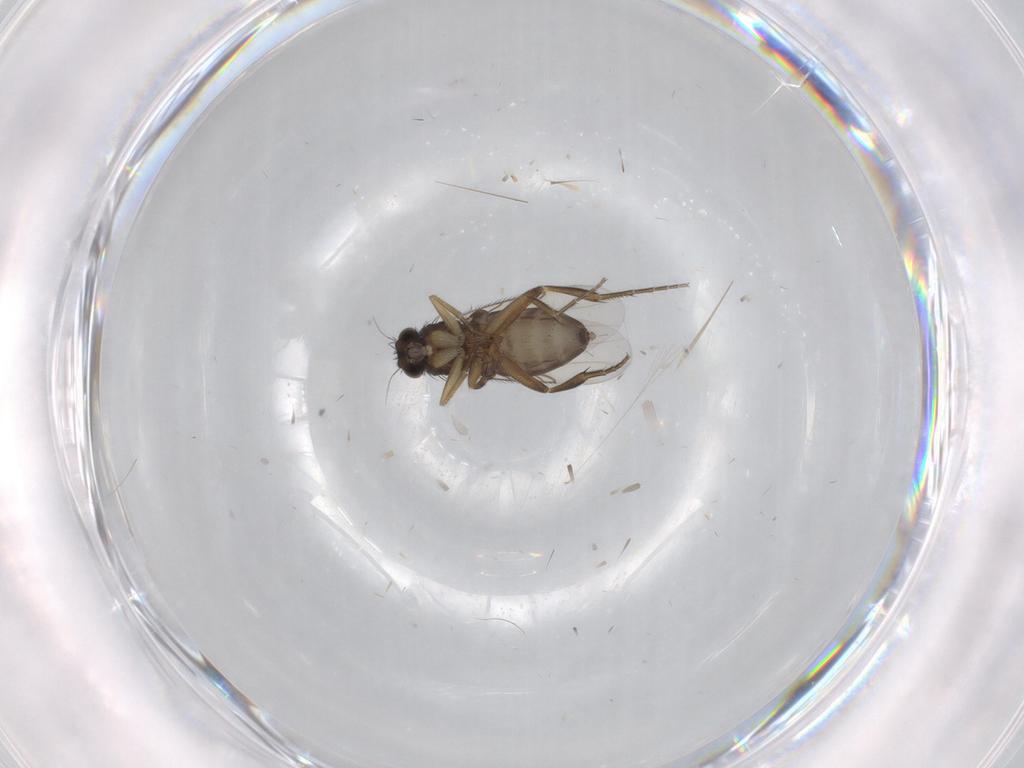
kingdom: Animalia
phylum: Arthropoda
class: Insecta
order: Diptera
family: Phoridae
